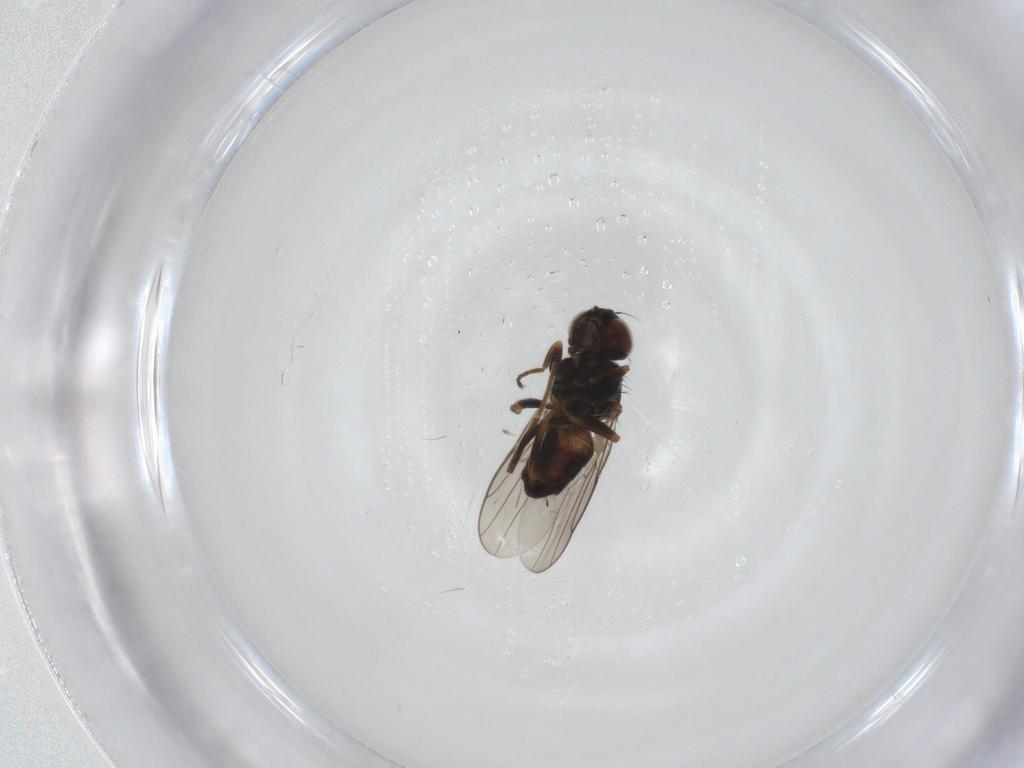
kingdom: Animalia
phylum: Arthropoda
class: Insecta
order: Diptera
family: Chloropidae
